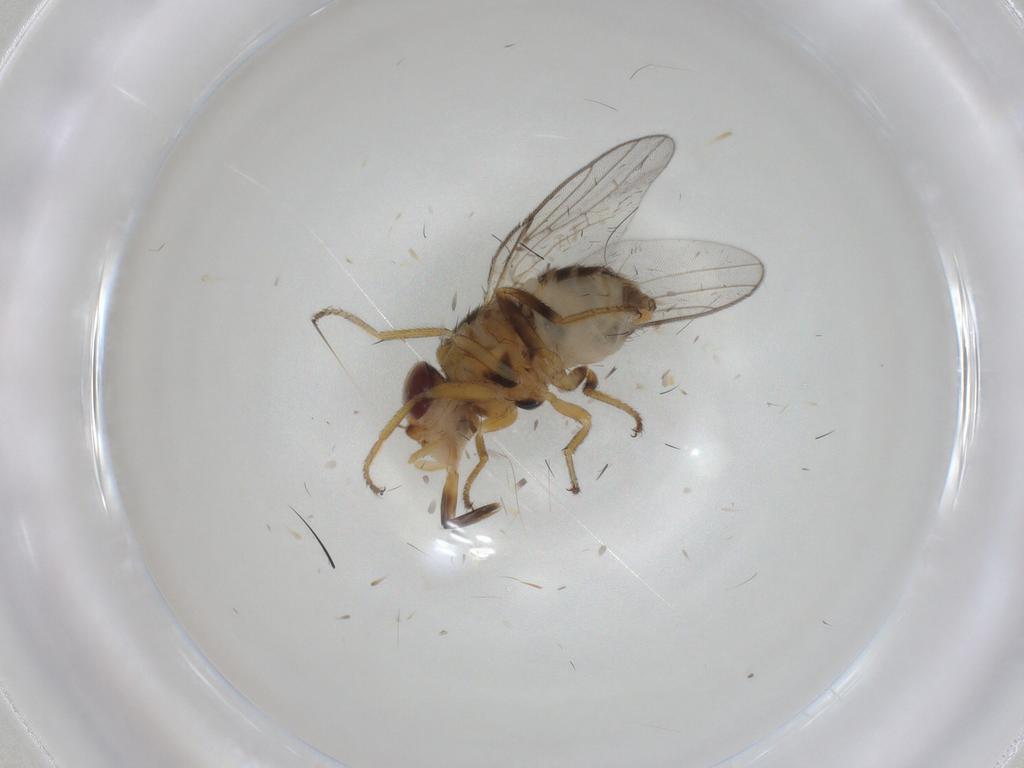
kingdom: Animalia
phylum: Arthropoda
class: Insecta
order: Diptera
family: Chloropidae
